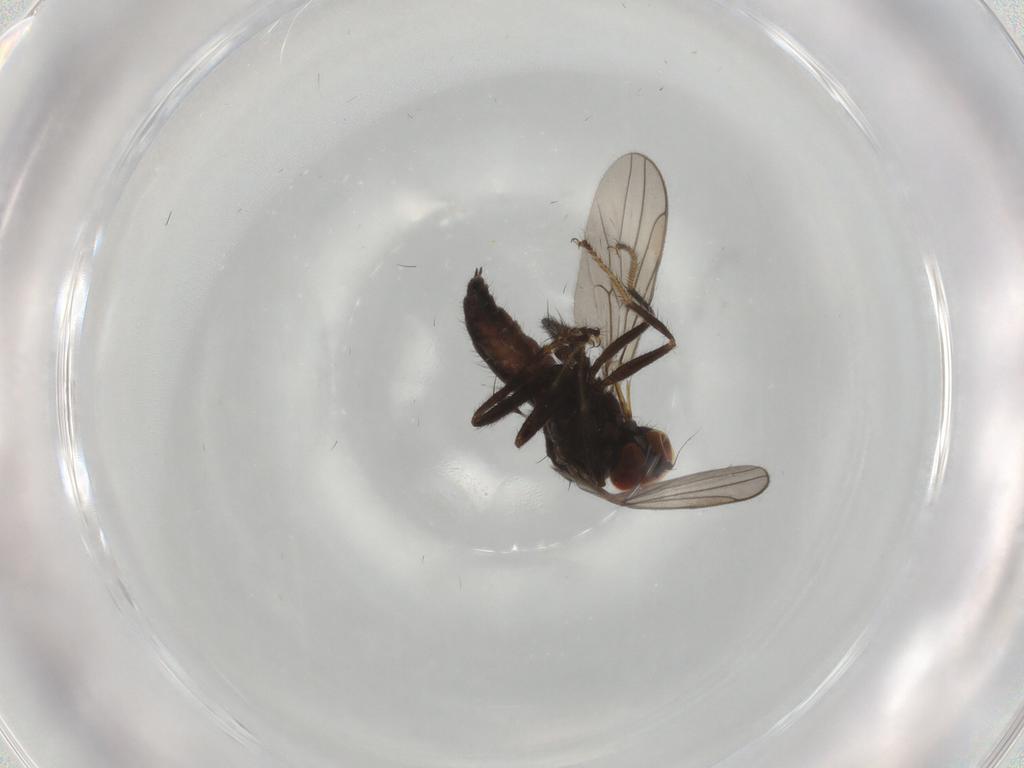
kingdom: Animalia
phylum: Arthropoda
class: Insecta
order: Diptera
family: Hybotidae
